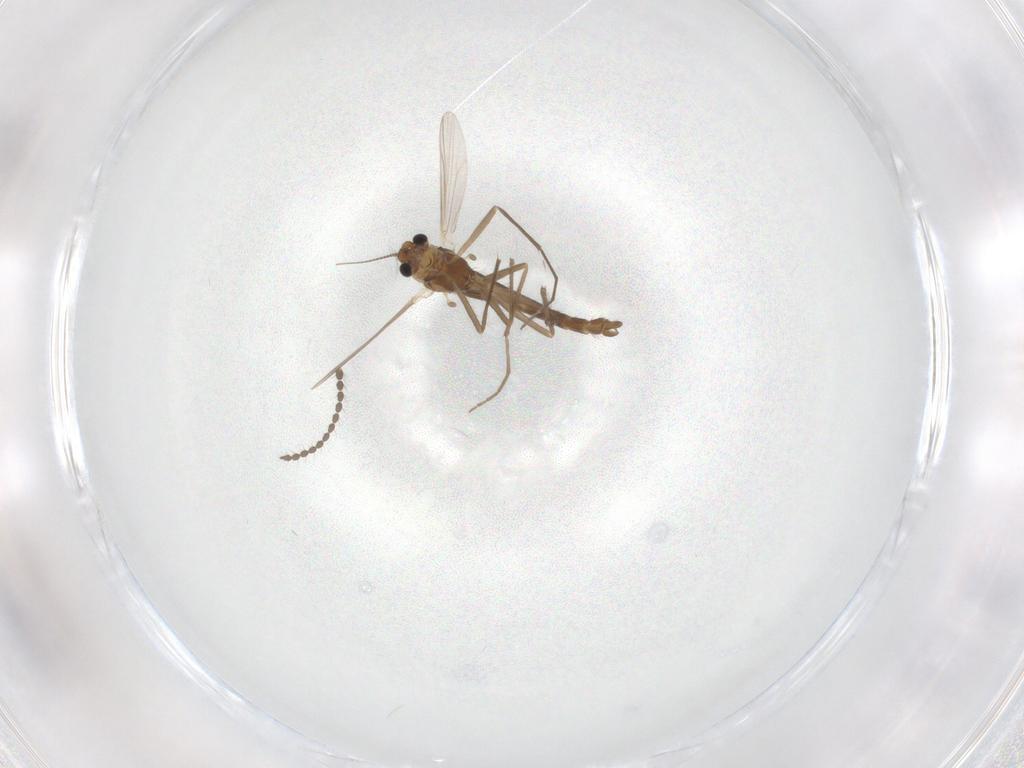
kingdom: Animalia
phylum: Arthropoda
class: Insecta
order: Diptera
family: Chironomidae
